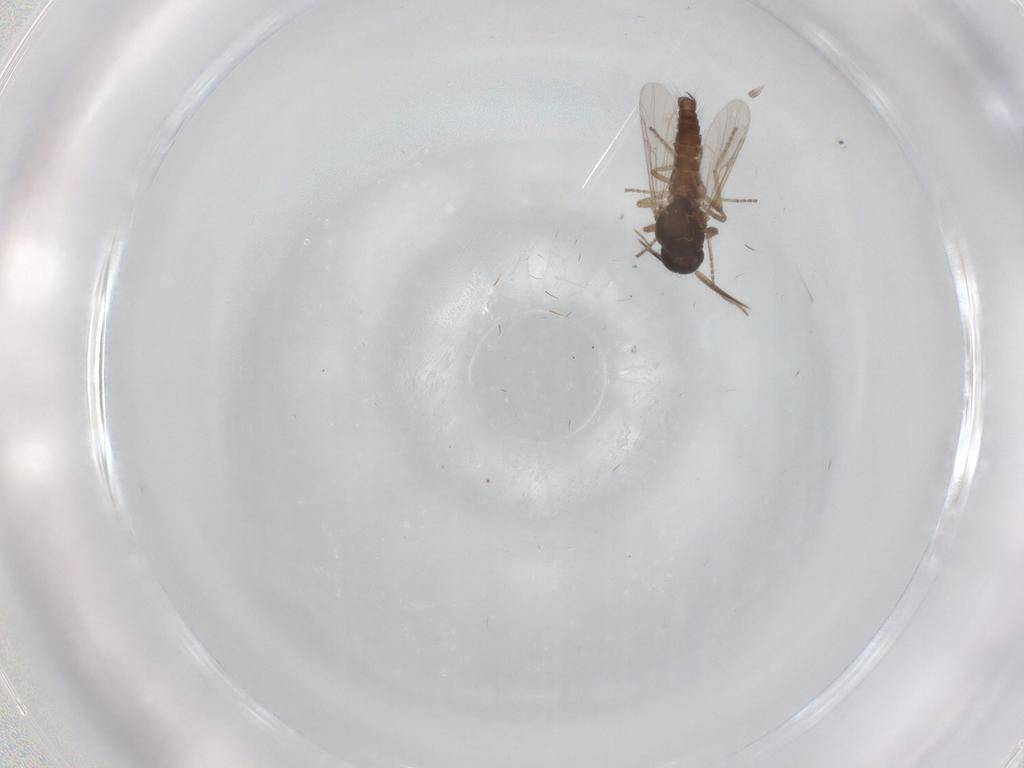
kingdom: Animalia
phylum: Arthropoda
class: Insecta
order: Diptera
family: Ceratopogonidae
